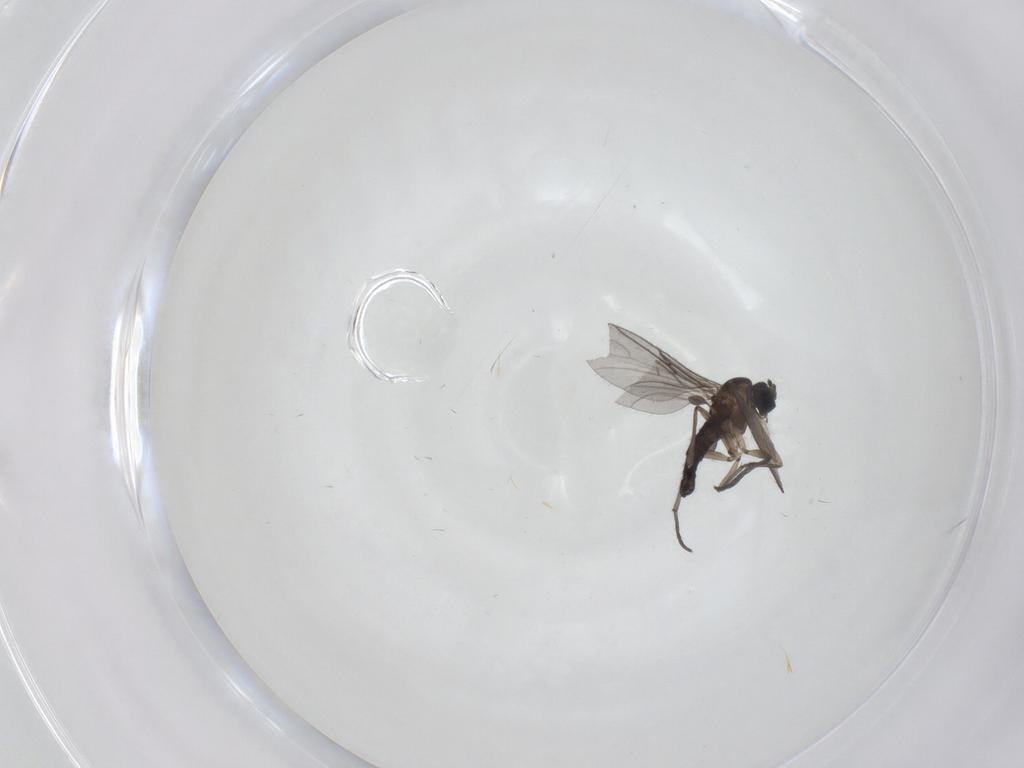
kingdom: Animalia
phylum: Arthropoda
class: Insecta
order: Diptera
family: Sciaridae
